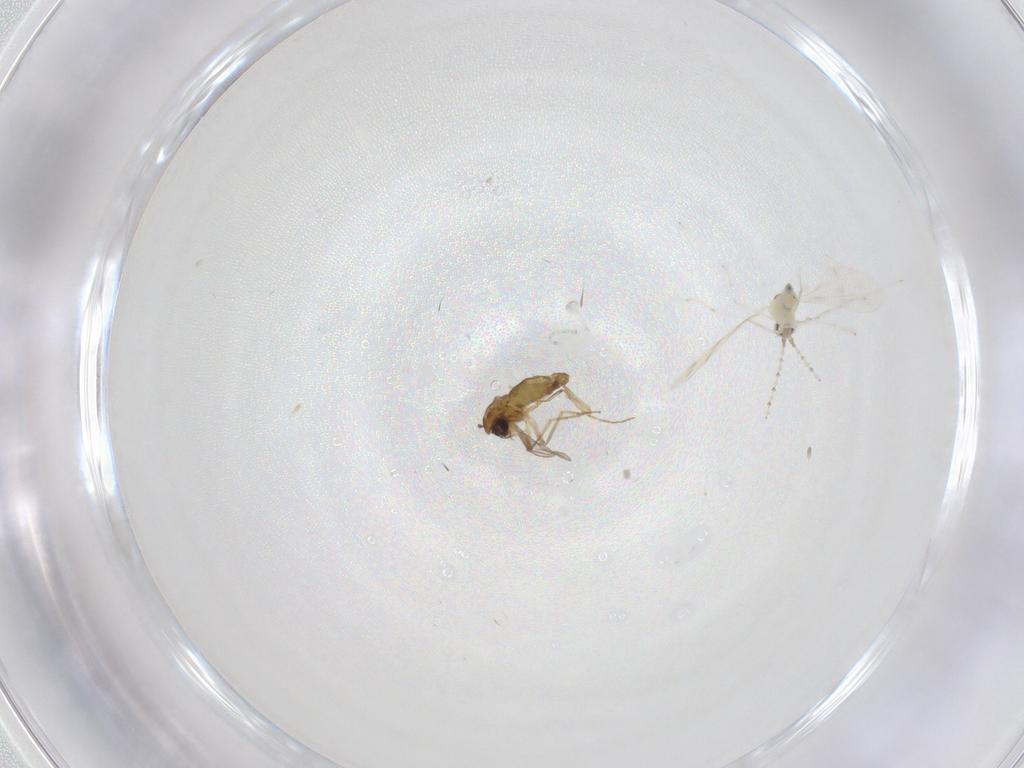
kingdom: Animalia
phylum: Arthropoda
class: Insecta
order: Diptera
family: Chironomidae
